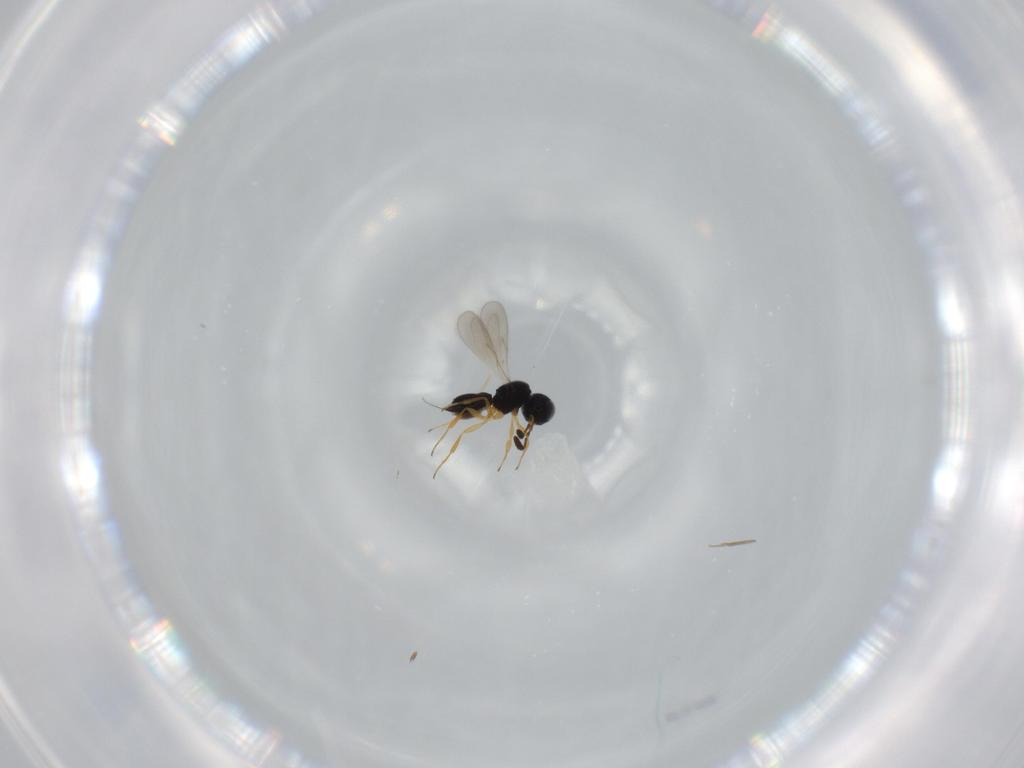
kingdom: Animalia
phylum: Arthropoda
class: Insecta
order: Hymenoptera
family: Scelionidae
